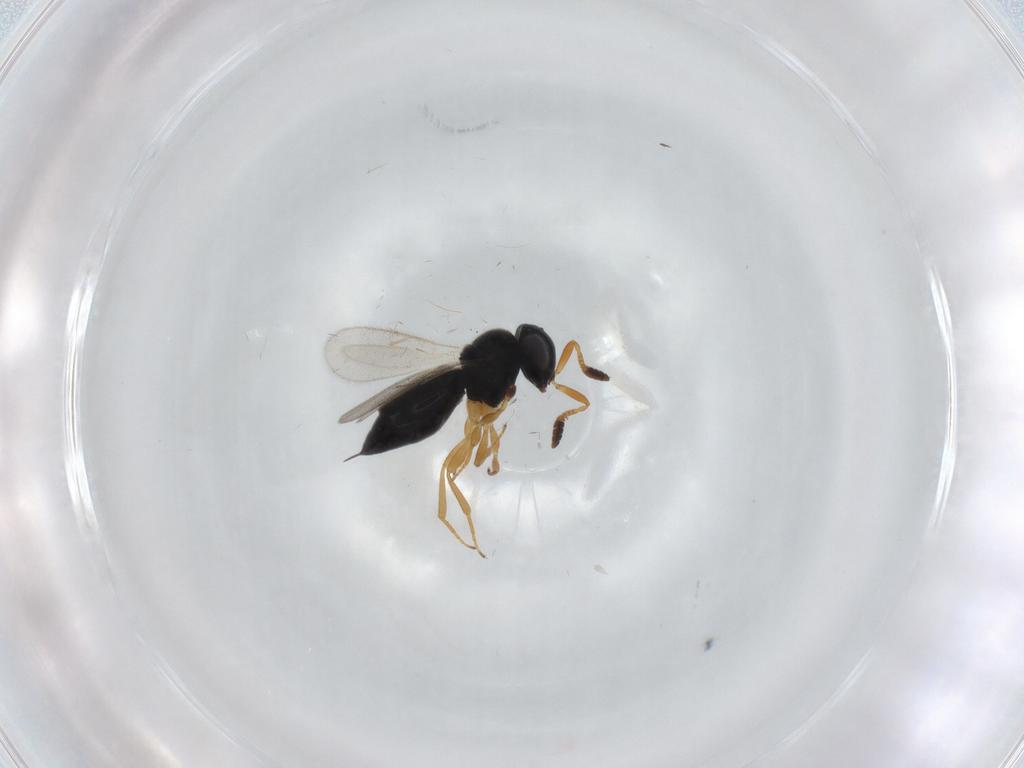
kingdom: Animalia
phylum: Arthropoda
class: Insecta
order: Hymenoptera
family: Scelionidae
